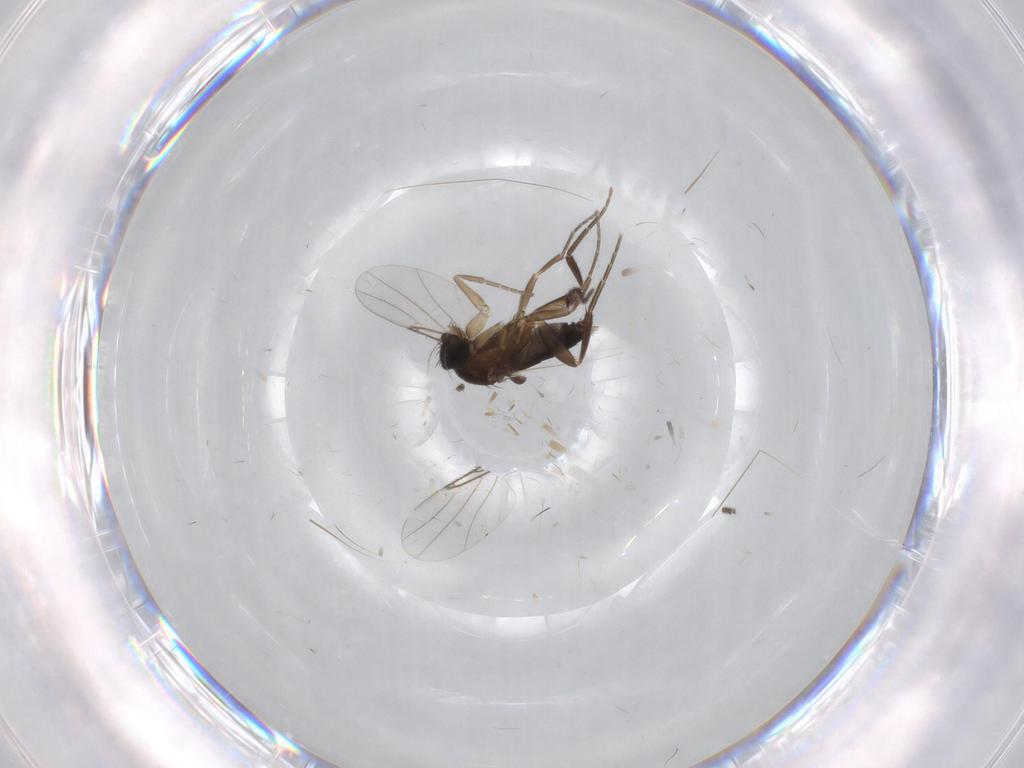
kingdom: Animalia
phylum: Arthropoda
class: Insecta
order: Diptera
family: Sciaridae
